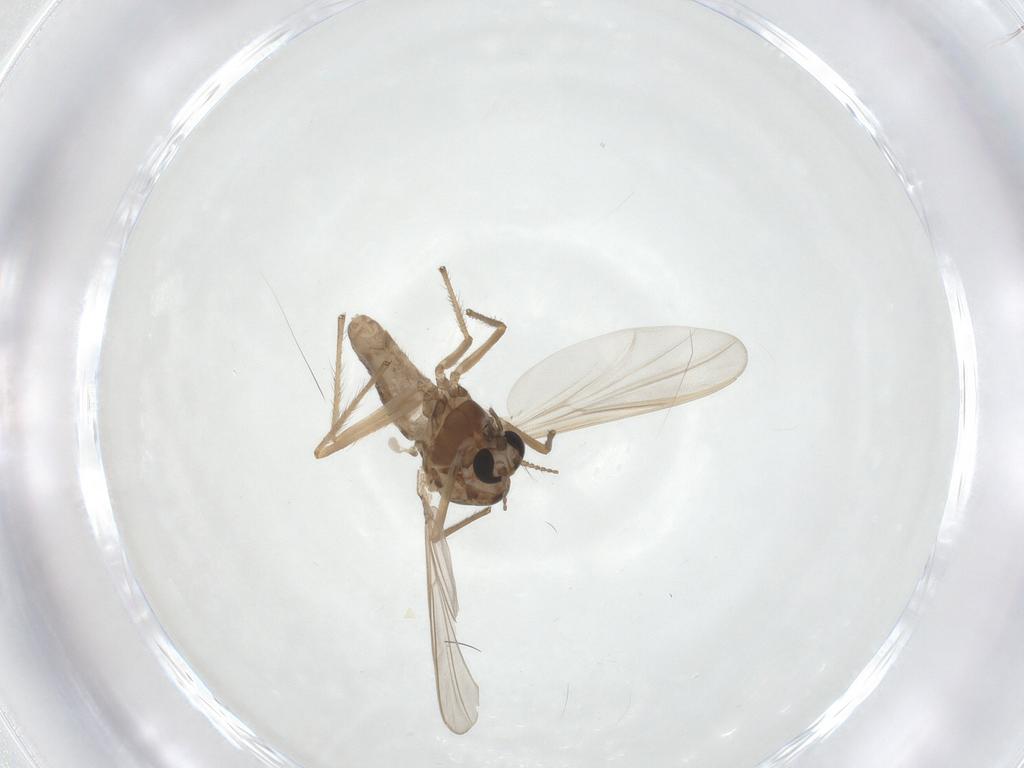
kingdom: Animalia
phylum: Arthropoda
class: Insecta
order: Diptera
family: Chironomidae
